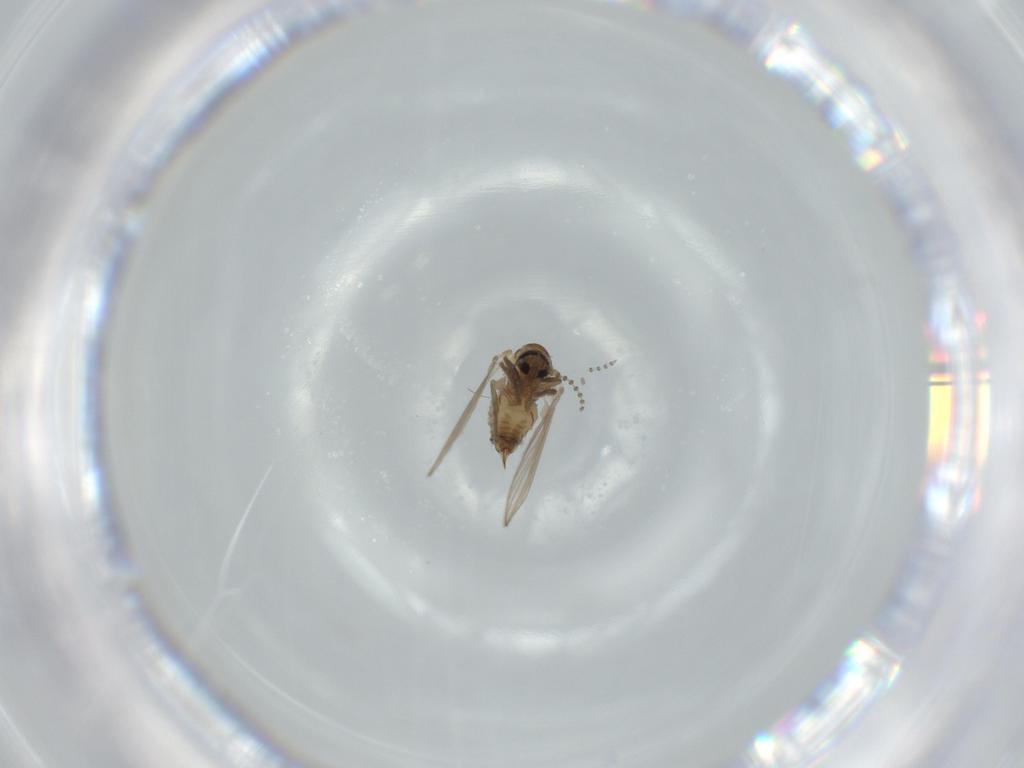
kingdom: Animalia
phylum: Arthropoda
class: Insecta
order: Diptera
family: Psychodidae
